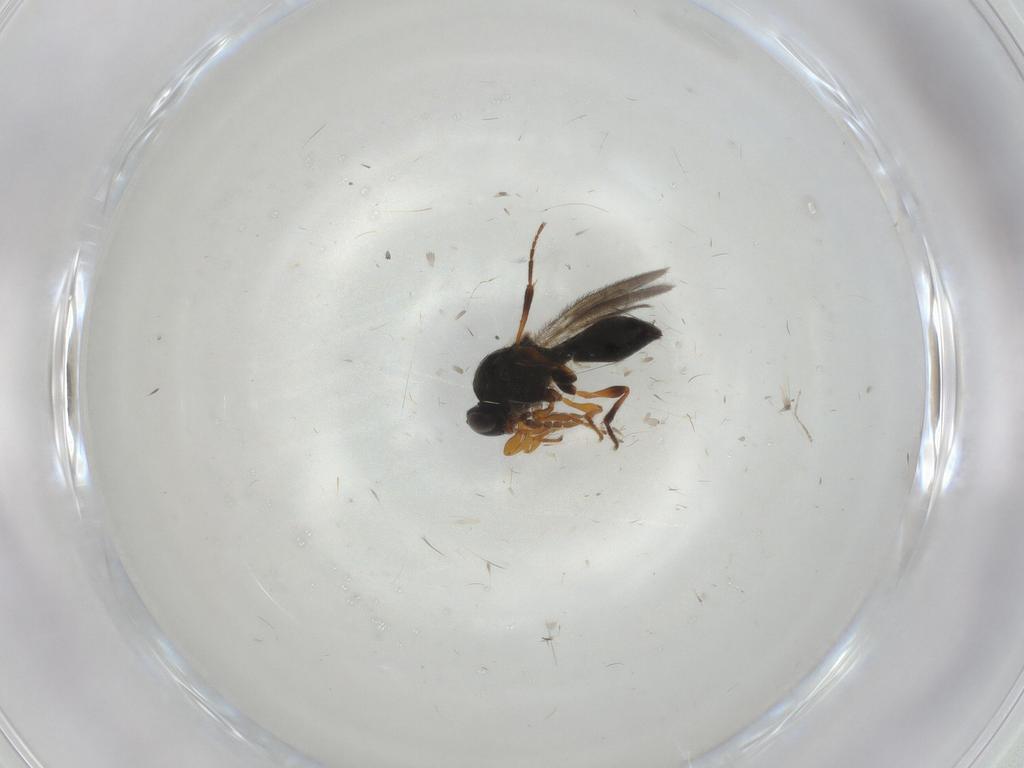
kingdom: Animalia
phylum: Arthropoda
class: Insecta
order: Hymenoptera
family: Platygastridae
